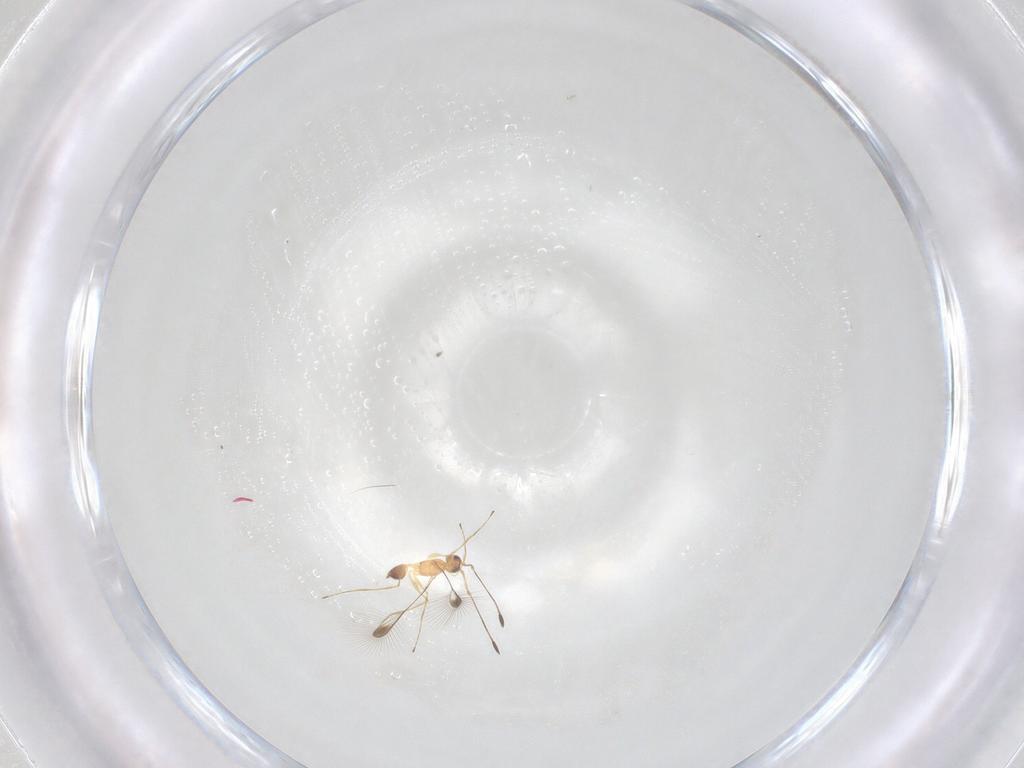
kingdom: Animalia
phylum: Arthropoda
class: Insecta
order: Hymenoptera
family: Mymaridae
